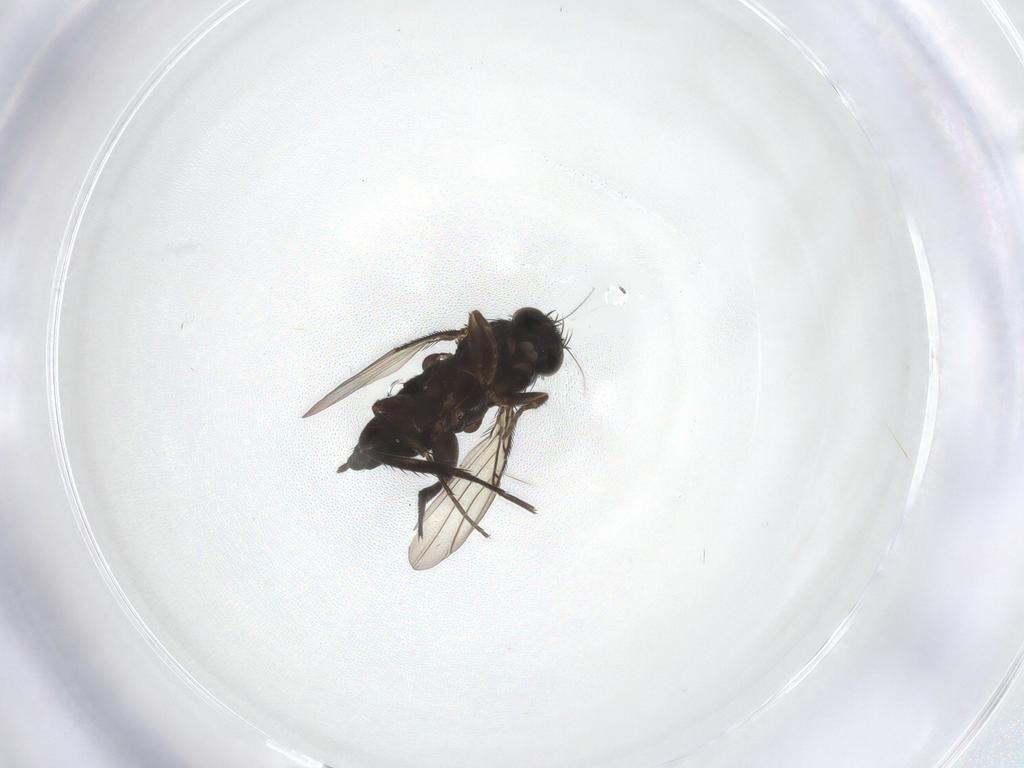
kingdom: Animalia
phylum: Arthropoda
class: Insecta
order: Diptera
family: Phoridae
